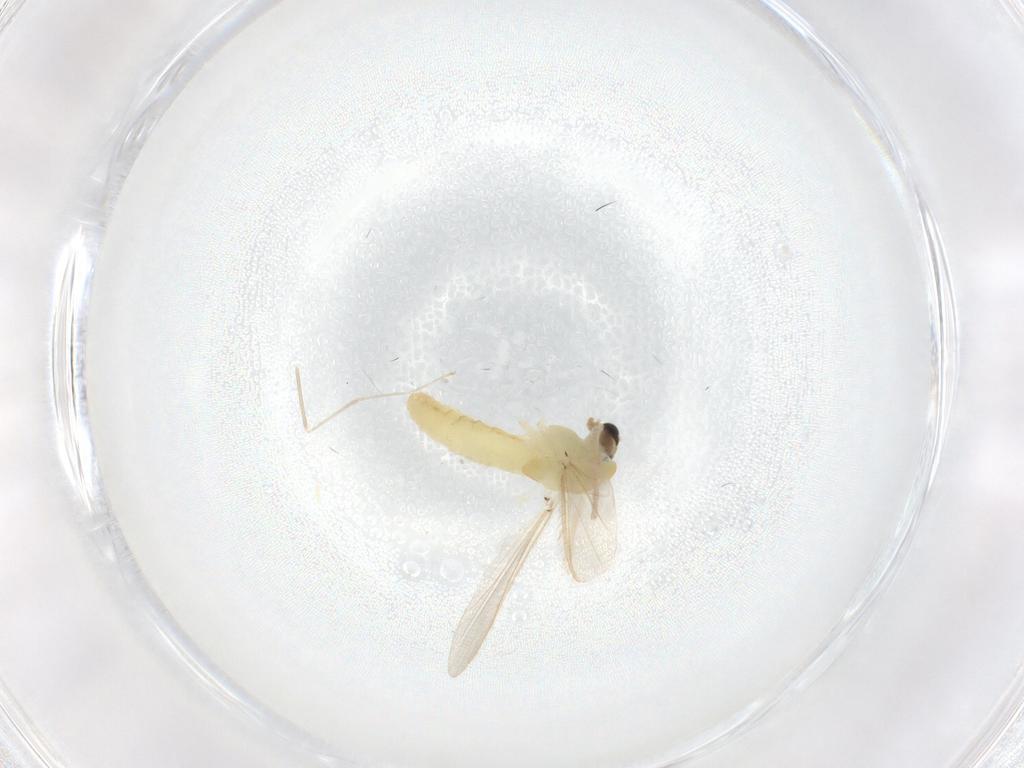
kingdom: Animalia
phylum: Arthropoda
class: Insecta
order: Diptera
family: Chironomidae
